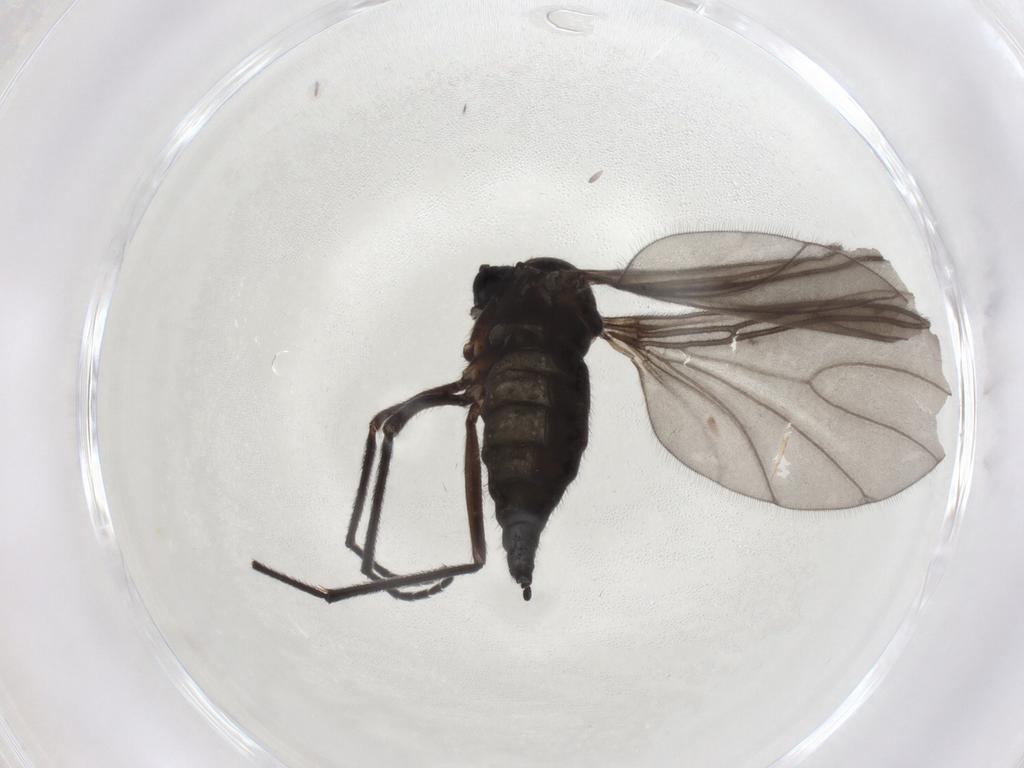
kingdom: Animalia
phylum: Arthropoda
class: Insecta
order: Diptera
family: Sciaridae
